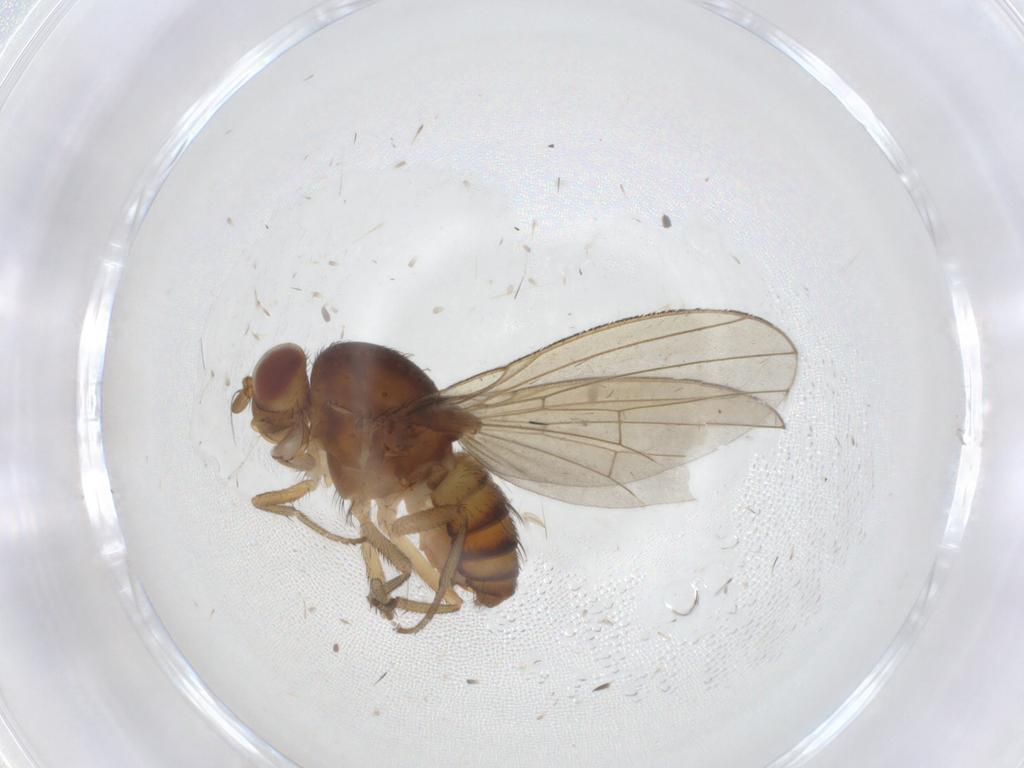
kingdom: Animalia
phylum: Arthropoda
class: Insecta
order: Diptera
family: Cecidomyiidae
